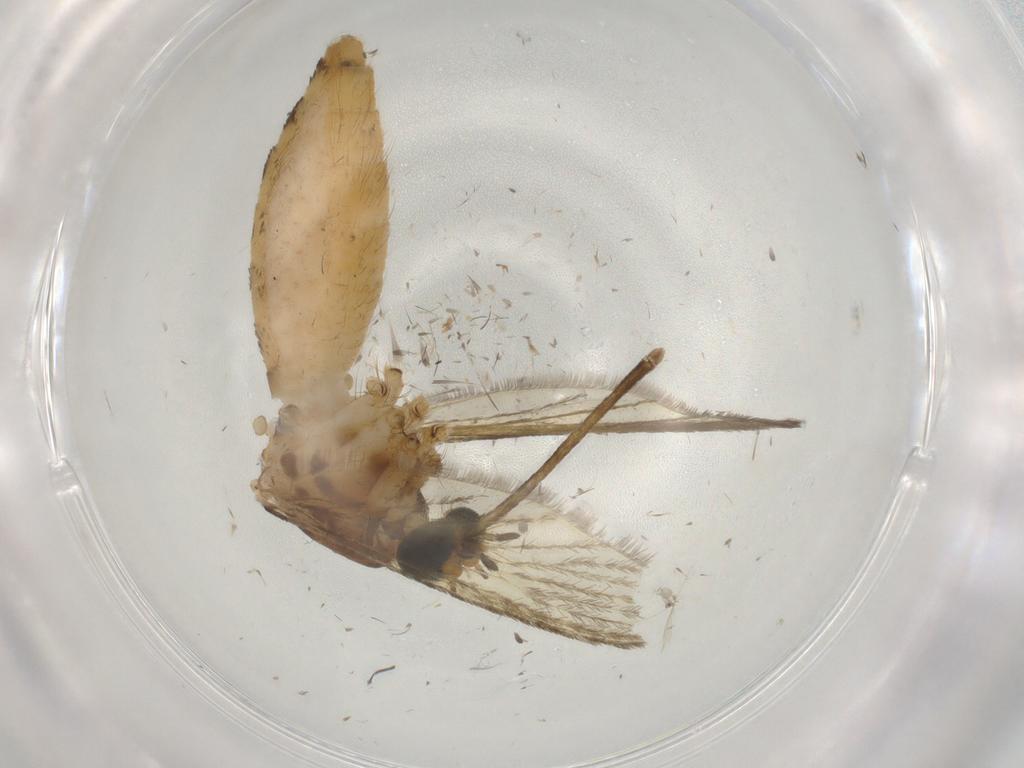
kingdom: Animalia
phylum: Arthropoda
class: Insecta
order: Diptera
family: Culicidae
